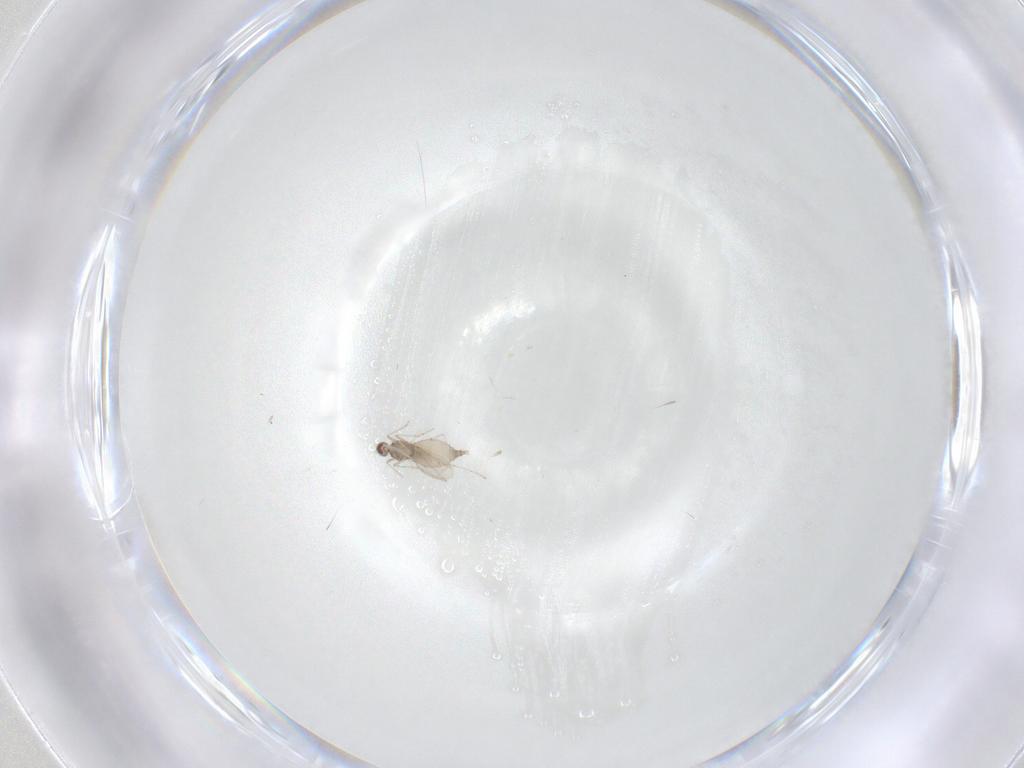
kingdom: Animalia
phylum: Arthropoda
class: Insecta
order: Diptera
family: Cecidomyiidae
